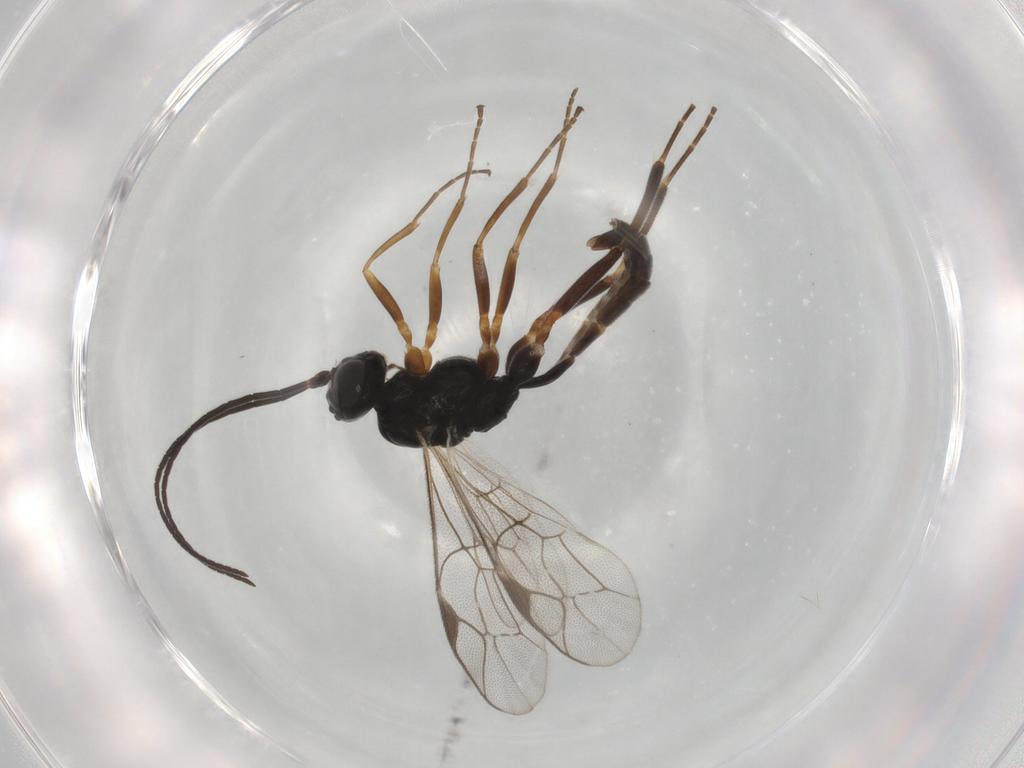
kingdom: Animalia
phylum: Arthropoda
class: Insecta
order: Hymenoptera
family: Ichneumonidae
